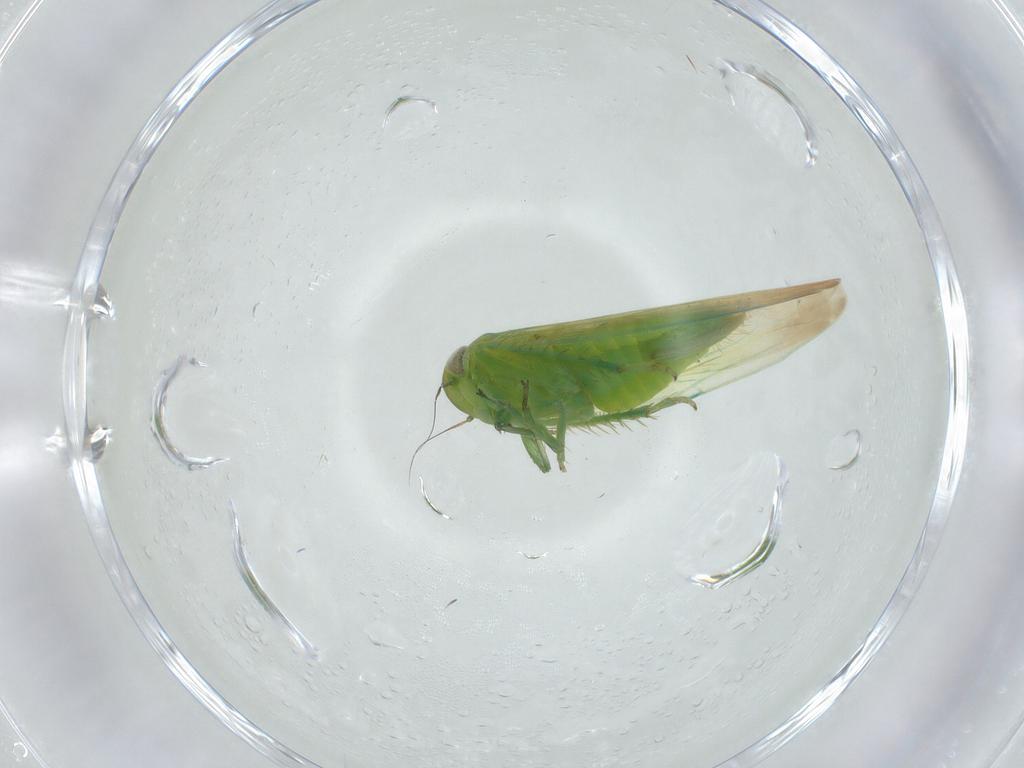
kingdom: Animalia
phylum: Arthropoda
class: Insecta
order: Hemiptera
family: Cicadellidae
